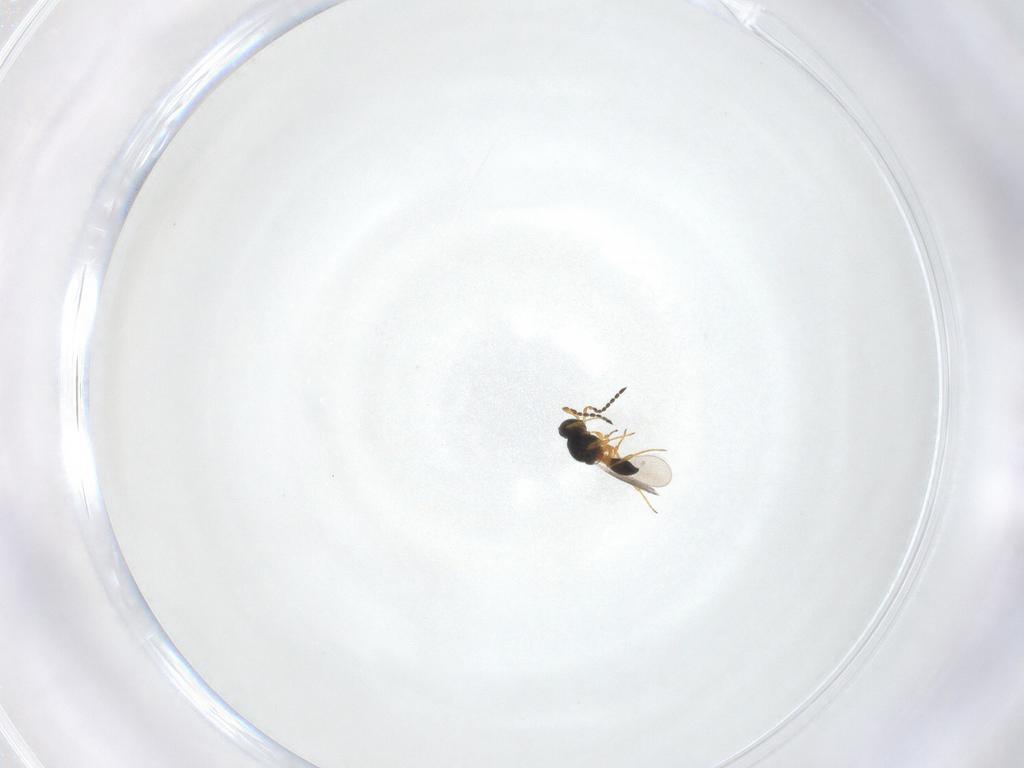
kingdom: Animalia
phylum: Arthropoda
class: Insecta
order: Hymenoptera
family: Platygastridae
